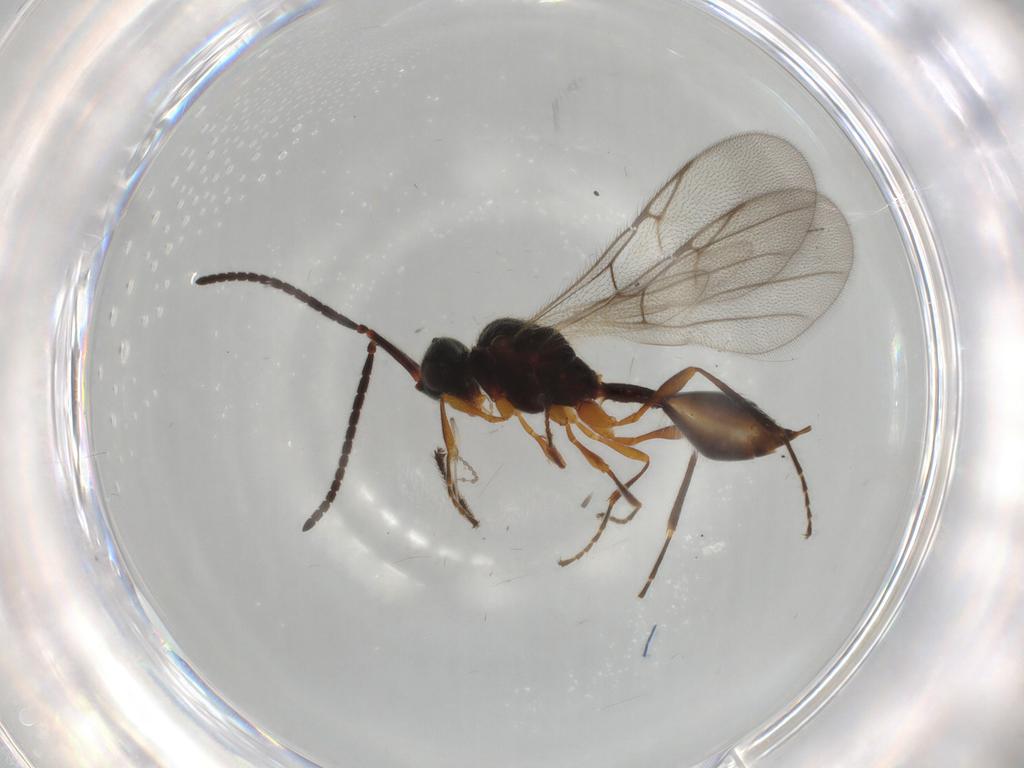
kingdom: Animalia
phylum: Arthropoda
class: Insecta
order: Hymenoptera
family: Diapriidae
